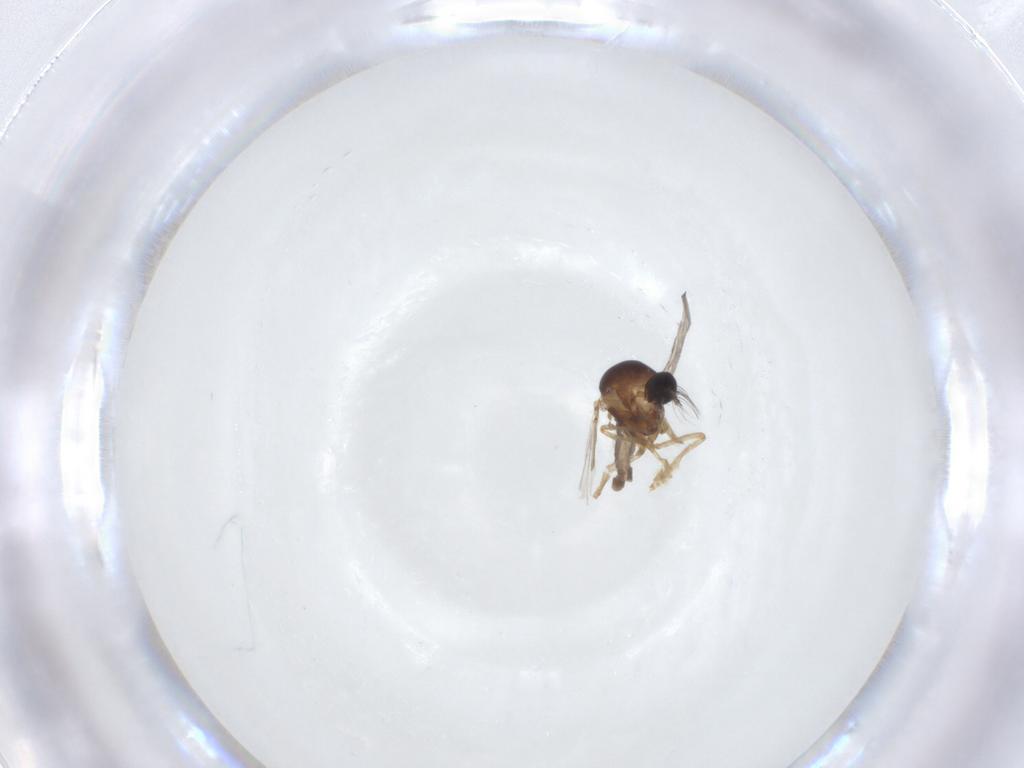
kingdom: Animalia
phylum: Arthropoda
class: Insecta
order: Diptera
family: Ceratopogonidae
